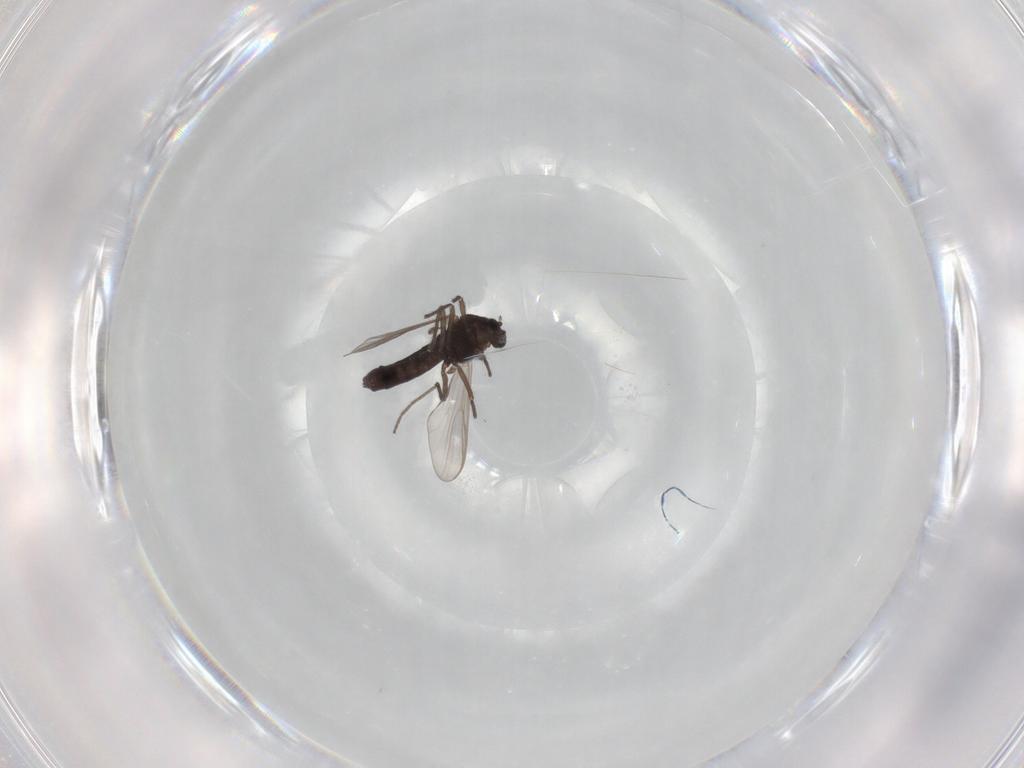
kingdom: Animalia
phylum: Arthropoda
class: Insecta
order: Diptera
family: Chironomidae
